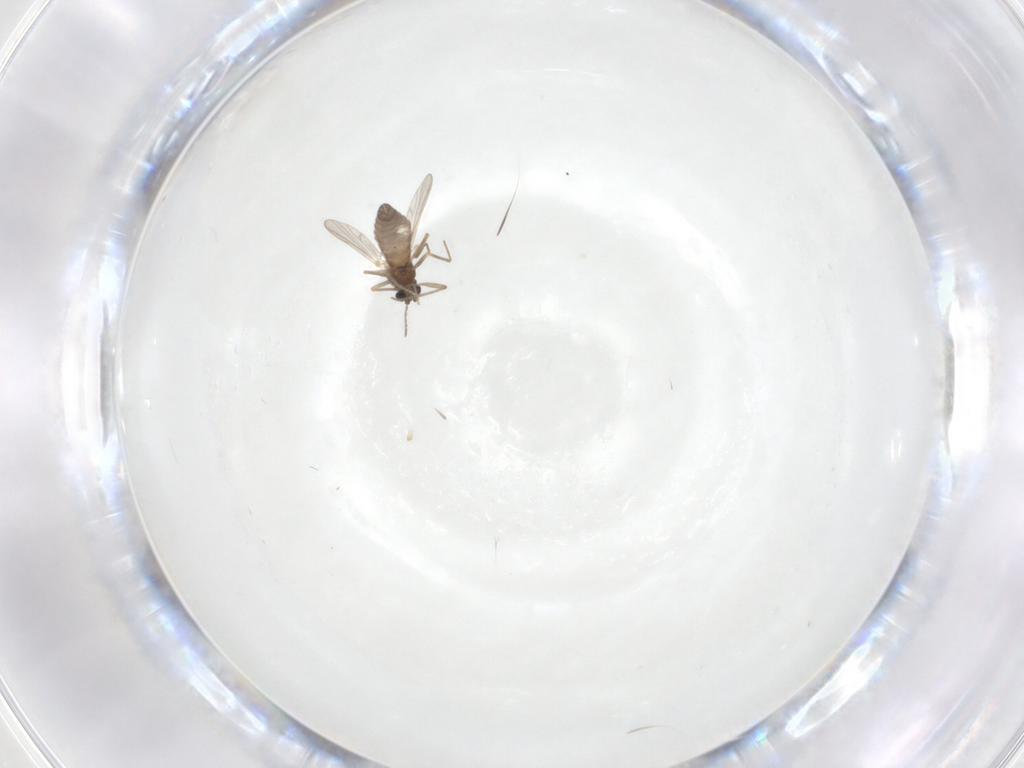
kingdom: Animalia
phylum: Arthropoda
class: Insecta
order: Diptera
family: Chironomidae
